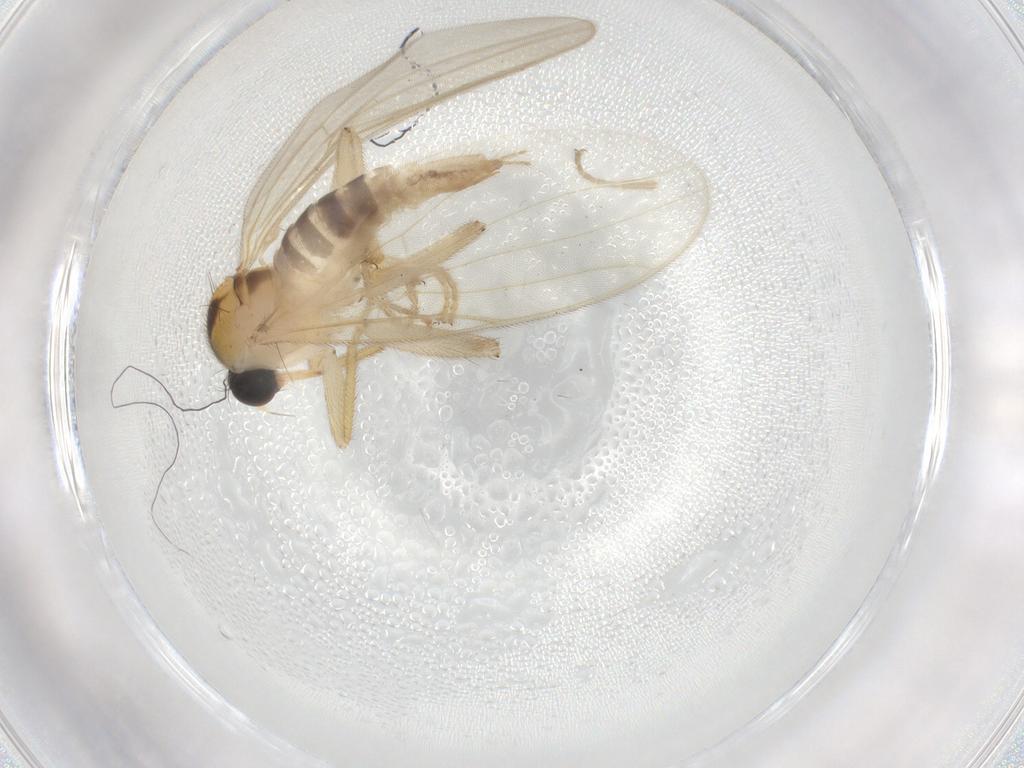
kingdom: Animalia
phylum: Arthropoda
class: Insecta
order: Diptera
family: Hybotidae
